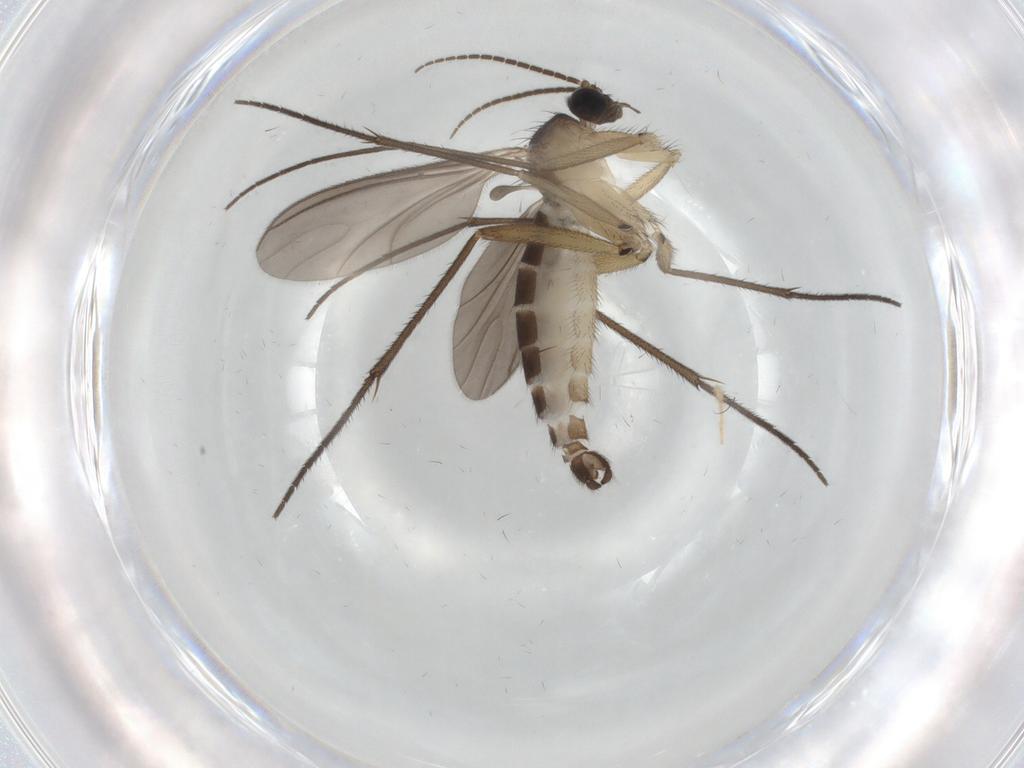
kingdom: Animalia
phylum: Arthropoda
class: Insecta
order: Diptera
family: Sciaridae
